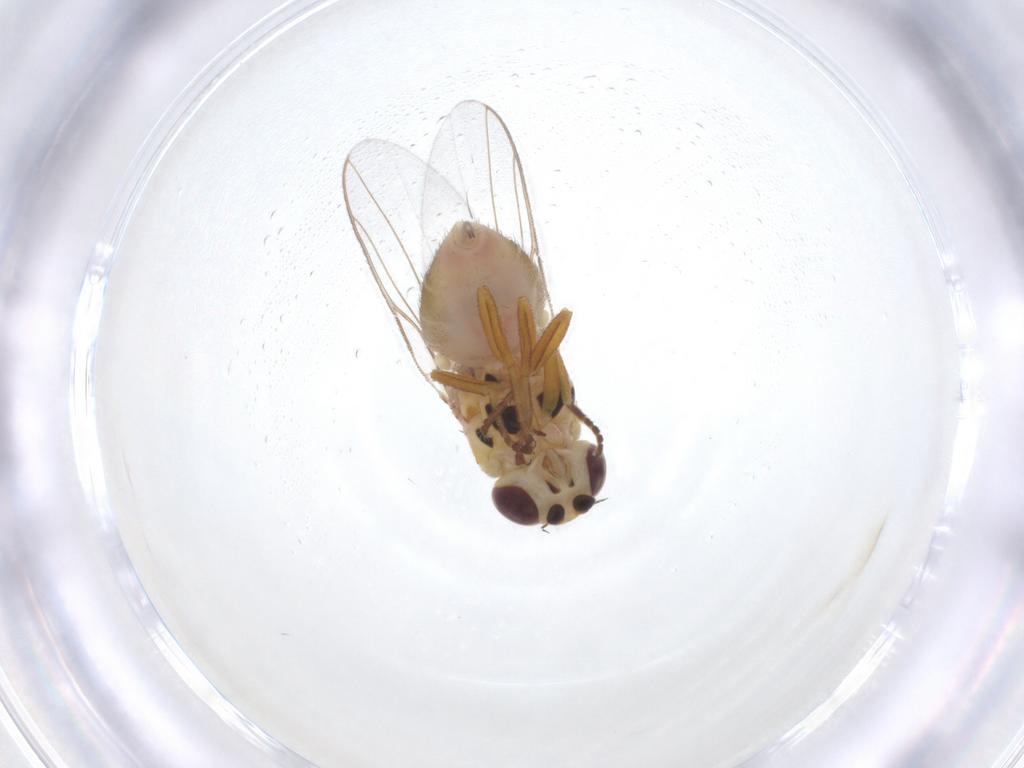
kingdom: Animalia
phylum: Arthropoda
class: Insecta
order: Diptera
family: Chloropidae
